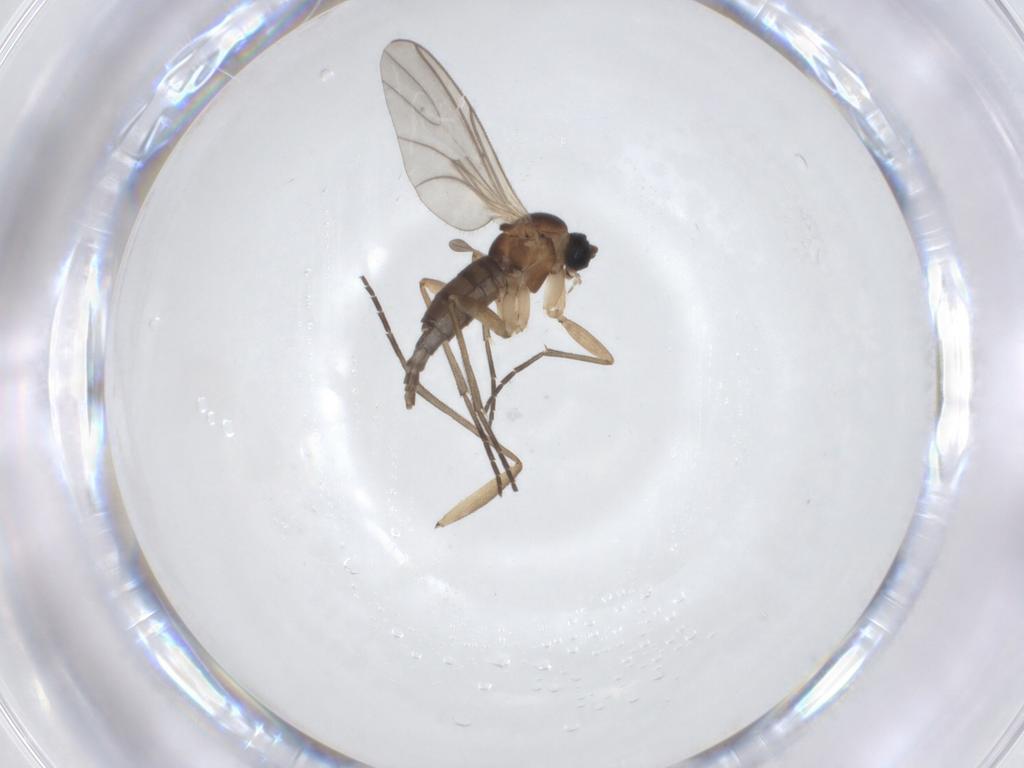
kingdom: Animalia
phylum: Arthropoda
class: Insecta
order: Diptera
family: Sciaridae
